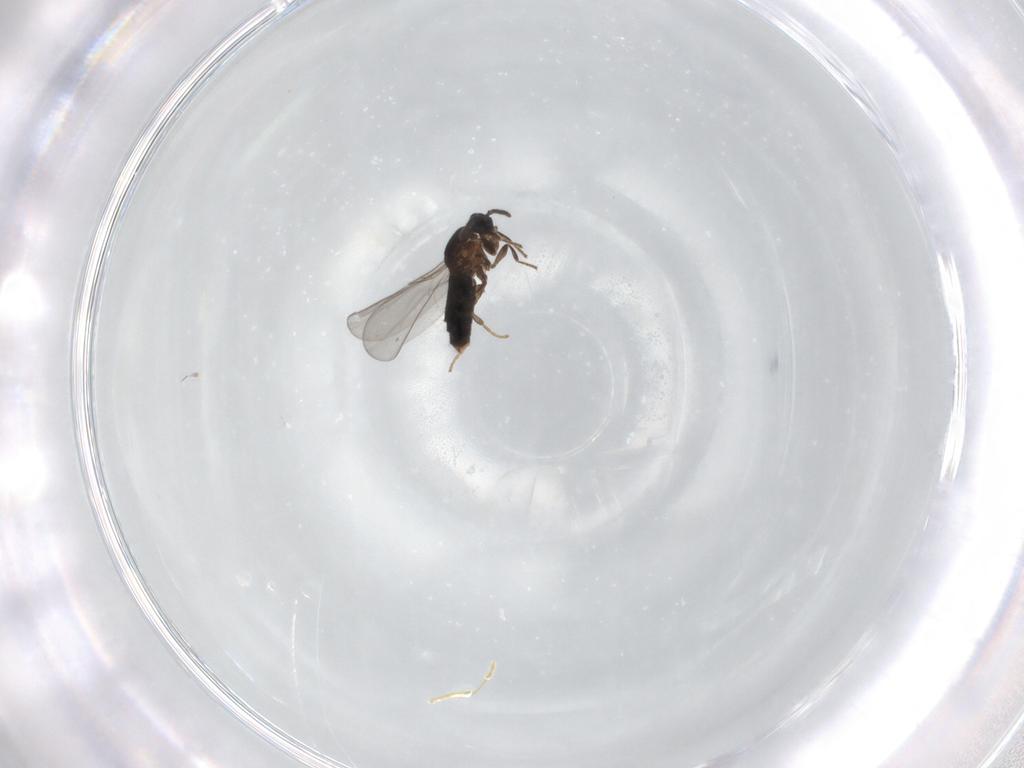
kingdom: Animalia
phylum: Arthropoda
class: Insecta
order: Diptera
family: Scatopsidae
